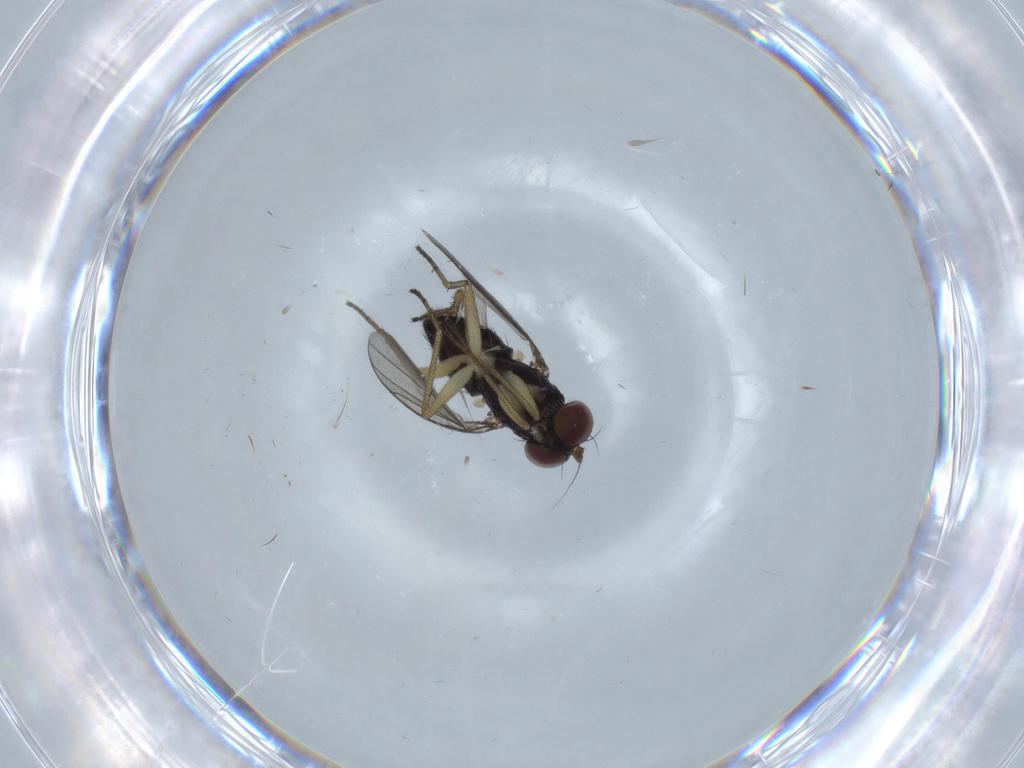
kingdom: Animalia
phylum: Arthropoda
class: Insecta
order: Diptera
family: Dolichopodidae
